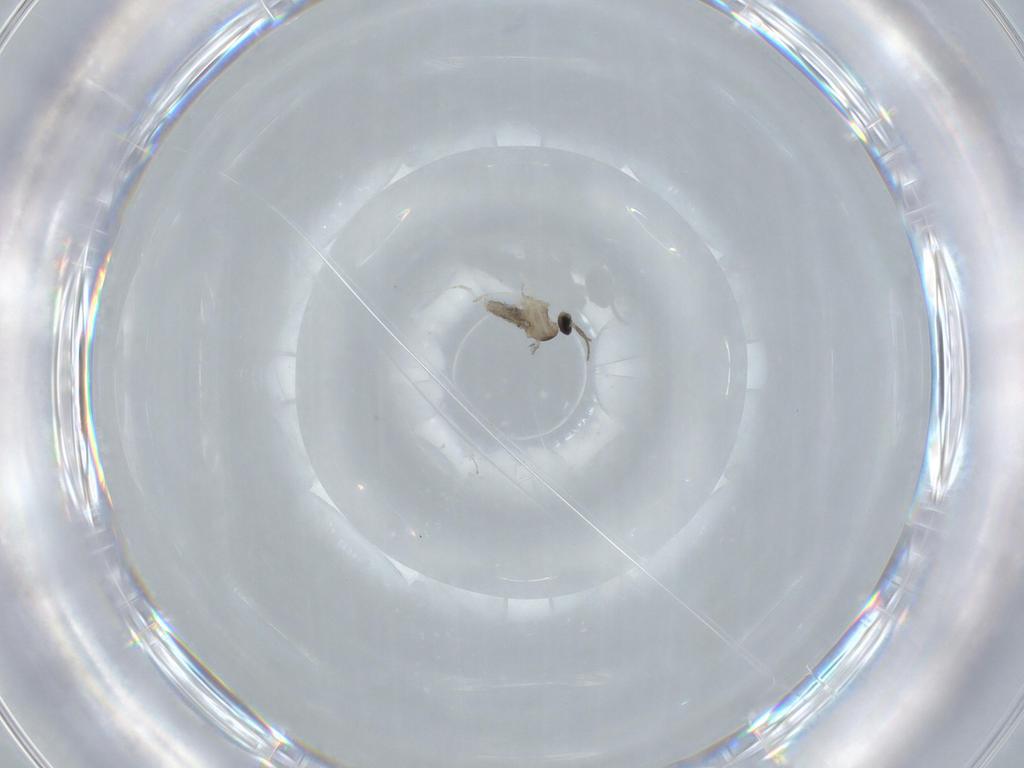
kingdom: Animalia
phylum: Arthropoda
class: Insecta
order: Diptera
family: Cecidomyiidae
